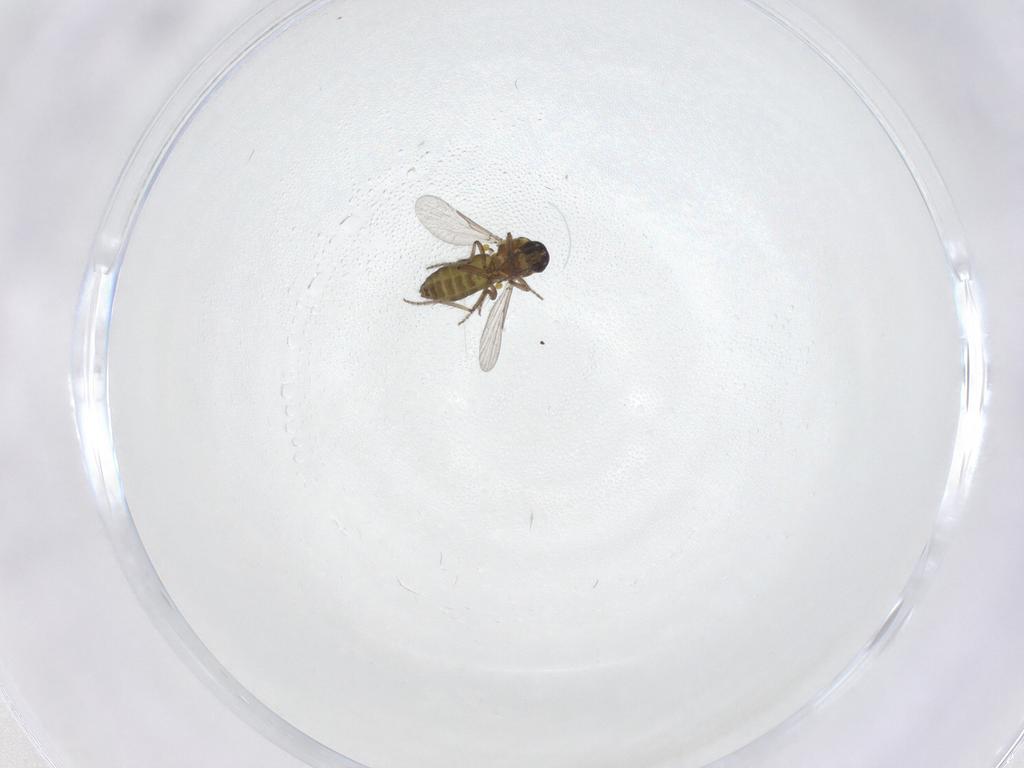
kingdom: Animalia
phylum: Arthropoda
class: Insecta
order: Diptera
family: Ceratopogonidae
